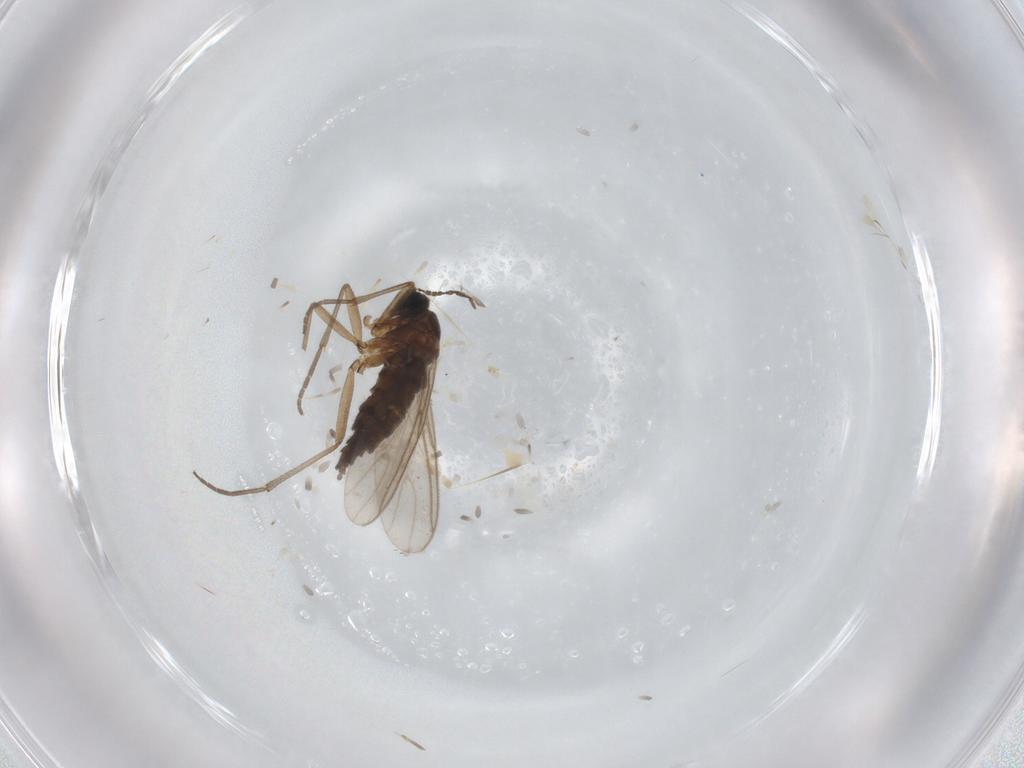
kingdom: Animalia
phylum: Arthropoda
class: Insecta
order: Diptera
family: Sciaridae
